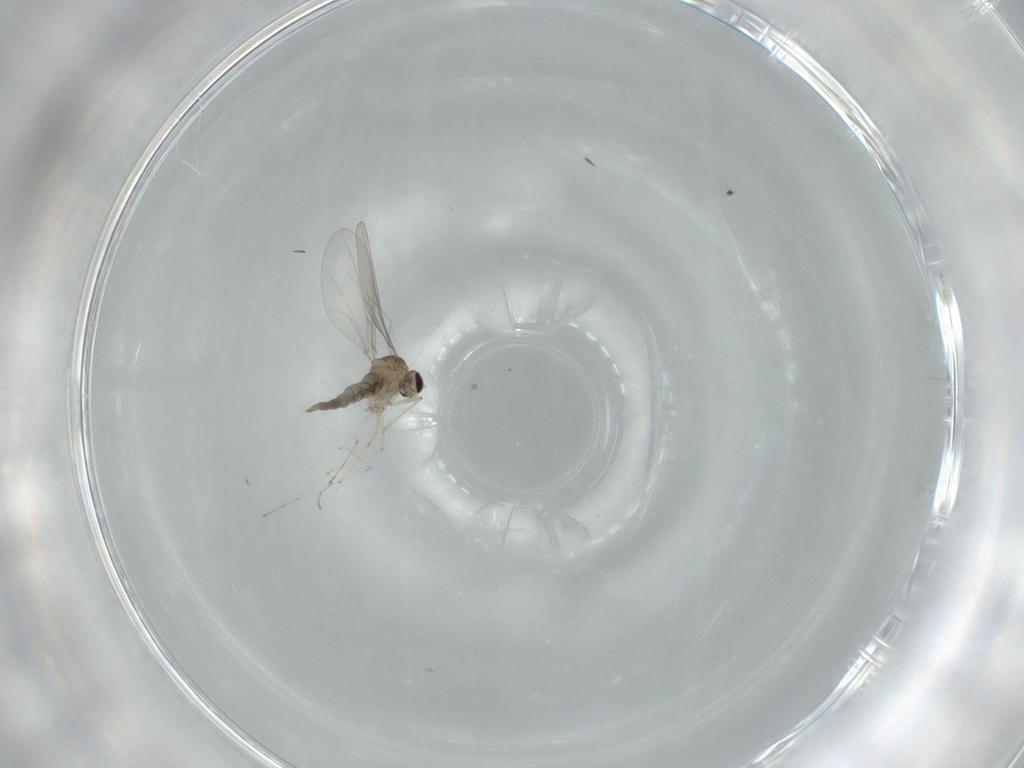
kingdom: Animalia
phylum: Arthropoda
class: Insecta
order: Diptera
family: Cecidomyiidae
